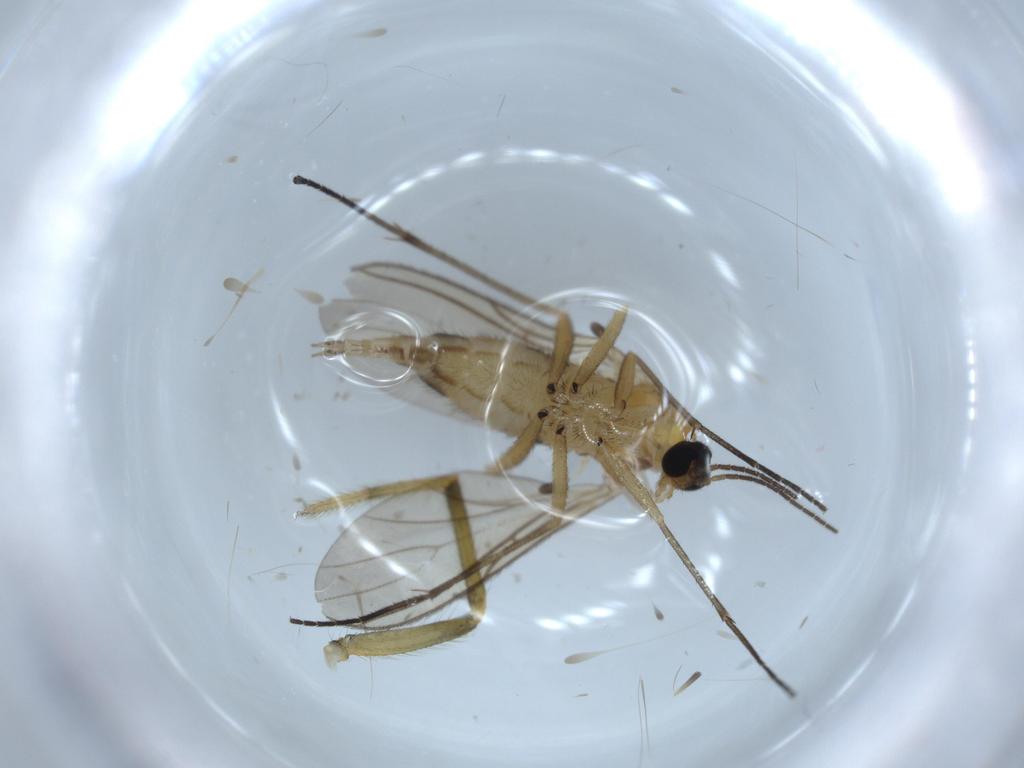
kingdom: Animalia
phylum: Arthropoda
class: Insecta
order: Diptera
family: Sciaridae
